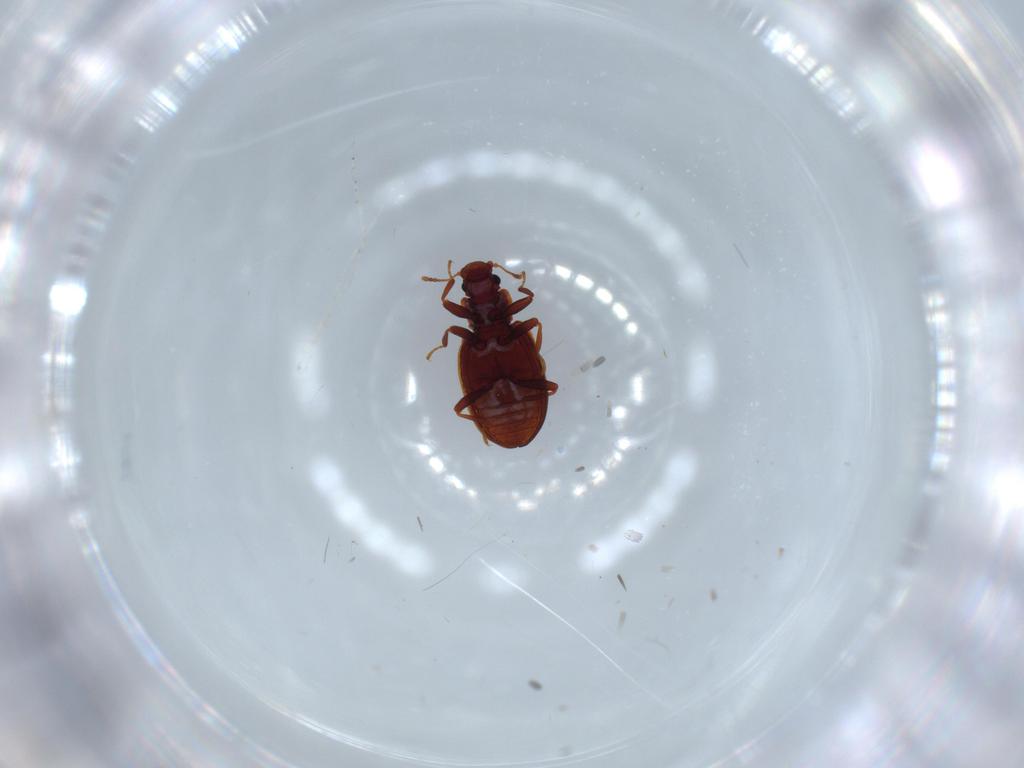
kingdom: Animalia
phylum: Arthropoda
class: Insecta
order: Coleoptera
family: Latridiidae
